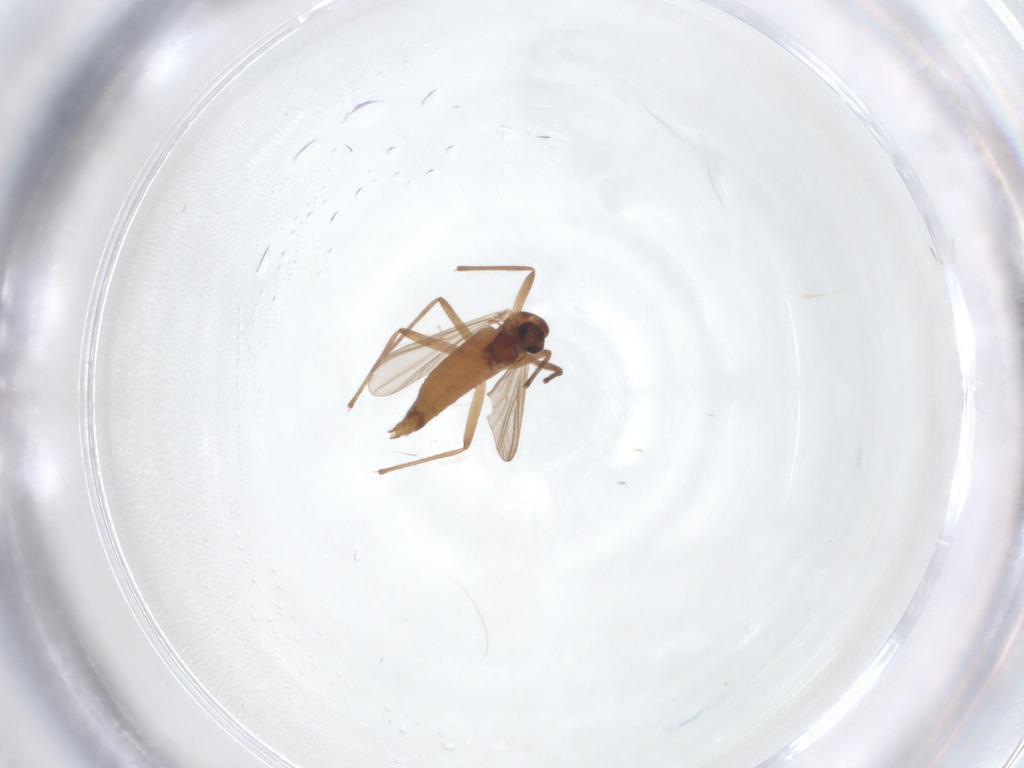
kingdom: Animalia
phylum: Arthropoda
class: Insecta
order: Diptera
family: Chironomidae
